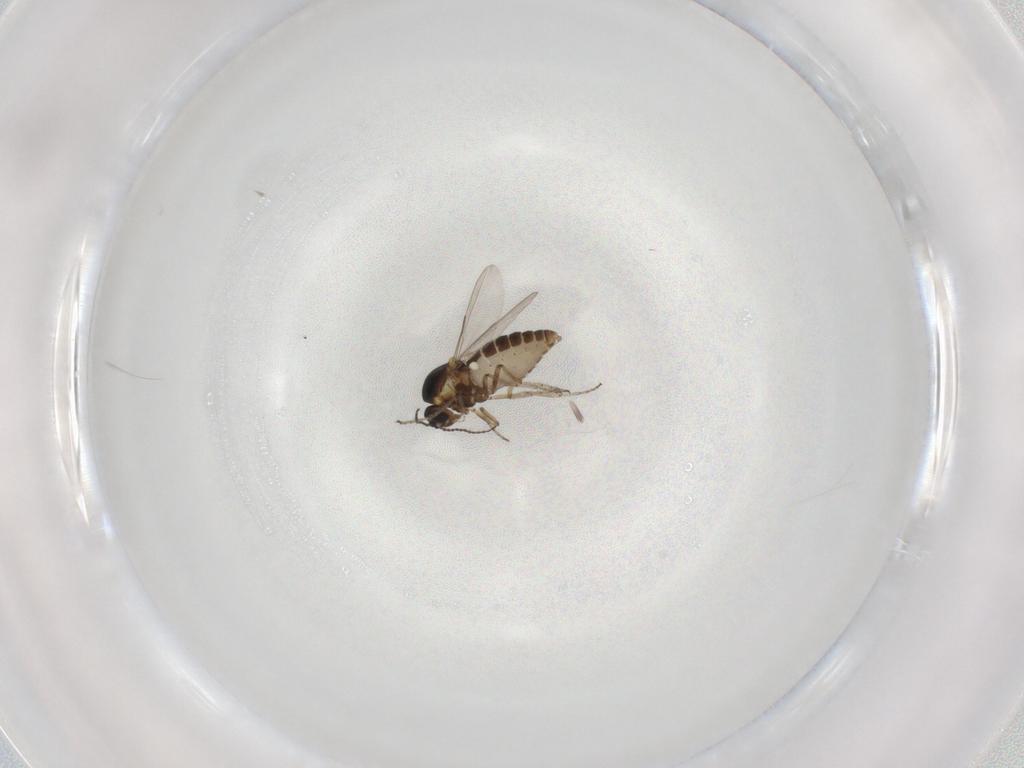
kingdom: Animalia
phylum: Arthropoda
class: Insecta
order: Diptera
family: Ceratopogonidae
